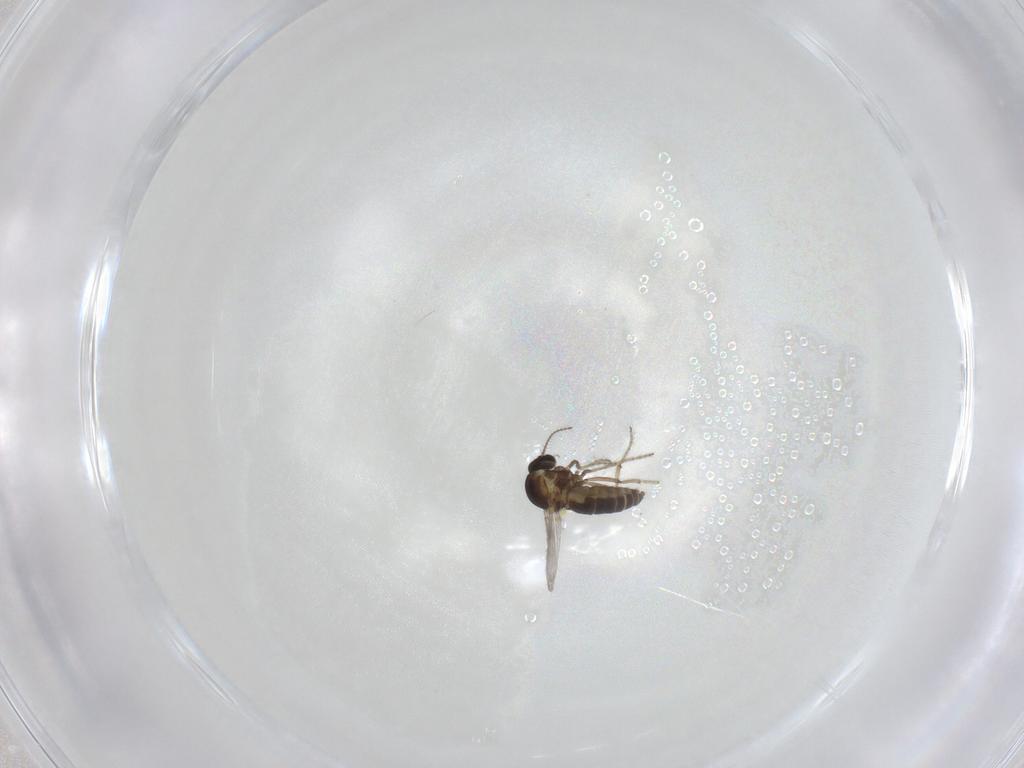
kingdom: Animalia
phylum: Arthropoda
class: Insecta
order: Diptera
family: Ceratopogonidae
